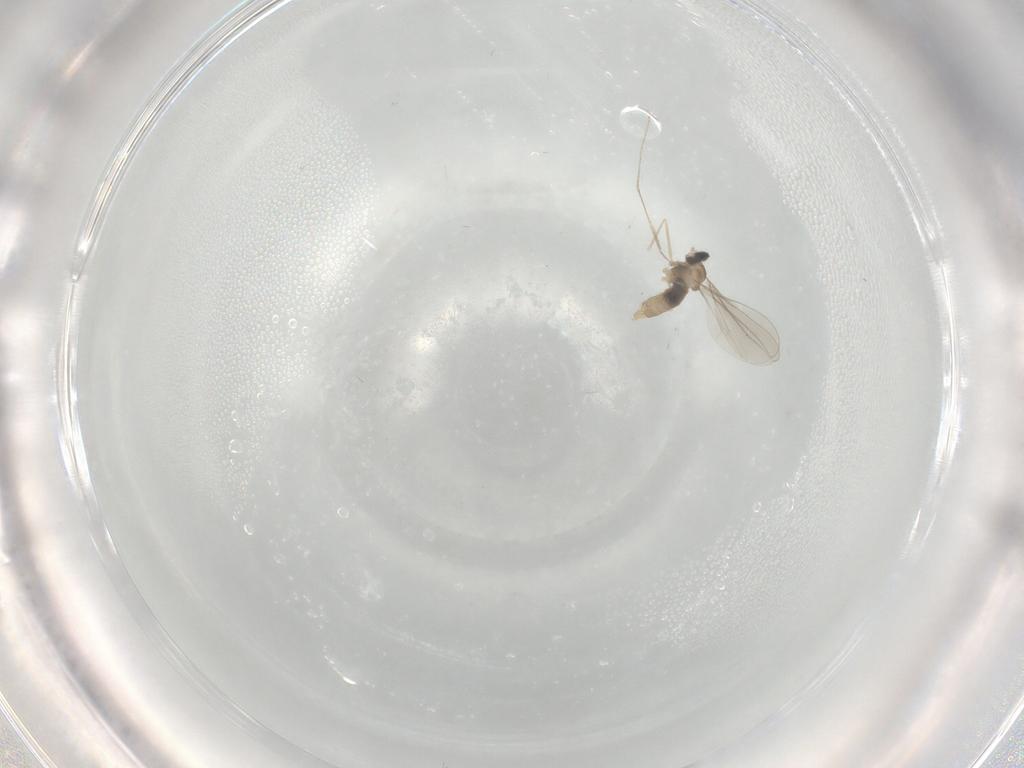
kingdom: Animalia
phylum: Arthropoda
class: Insecta
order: Diptera
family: Cecidomyiidae
